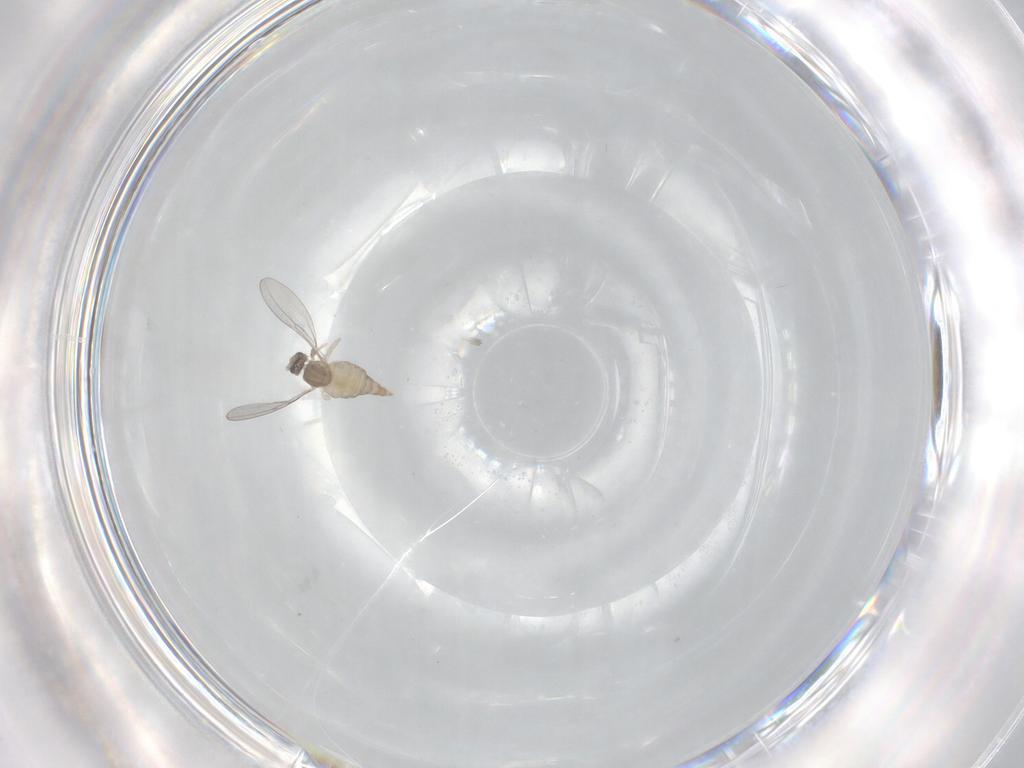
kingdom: Animalia
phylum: Arthropoda
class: Insecta
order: Diptera
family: Cecidomyiidae
